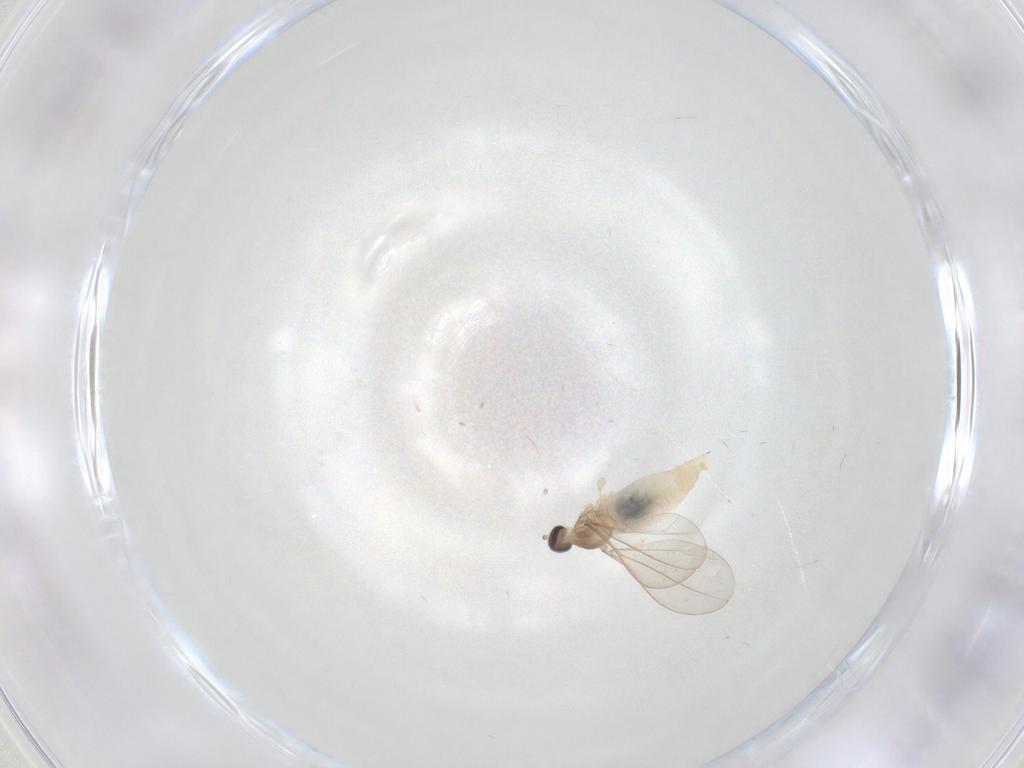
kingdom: Animalia
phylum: Arthropoda
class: Insecta
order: Diptera
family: Cecidomyiidae
